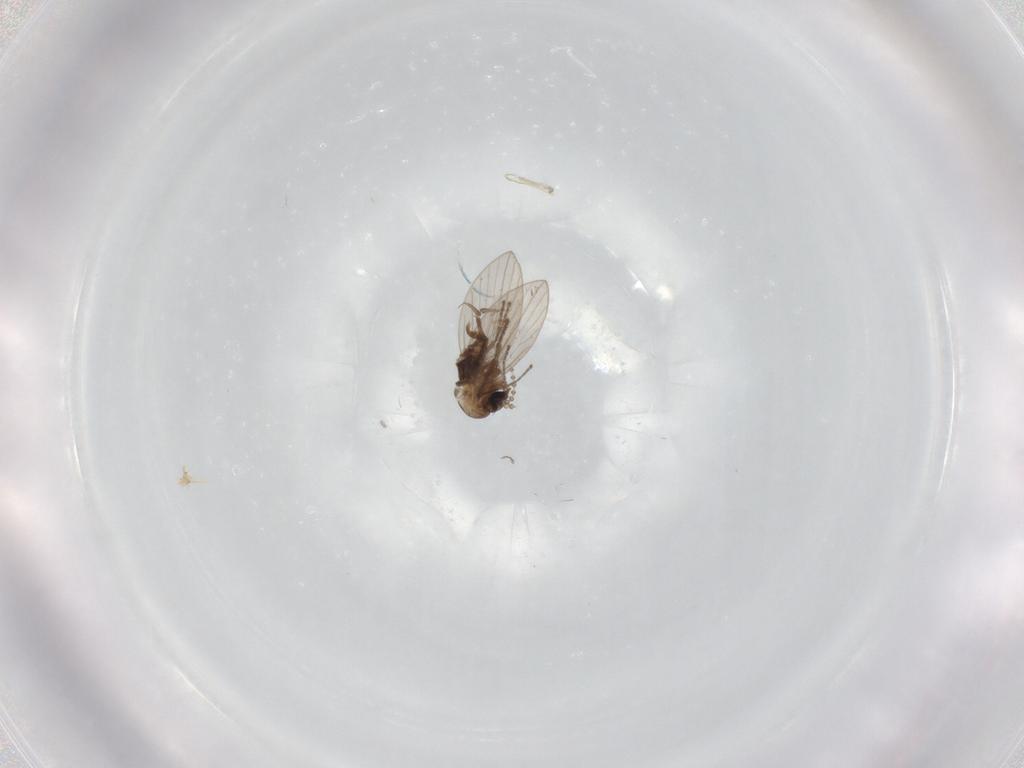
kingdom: Animalia
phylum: Arthropoda
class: Insecta
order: Diptera
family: Psychodidae
